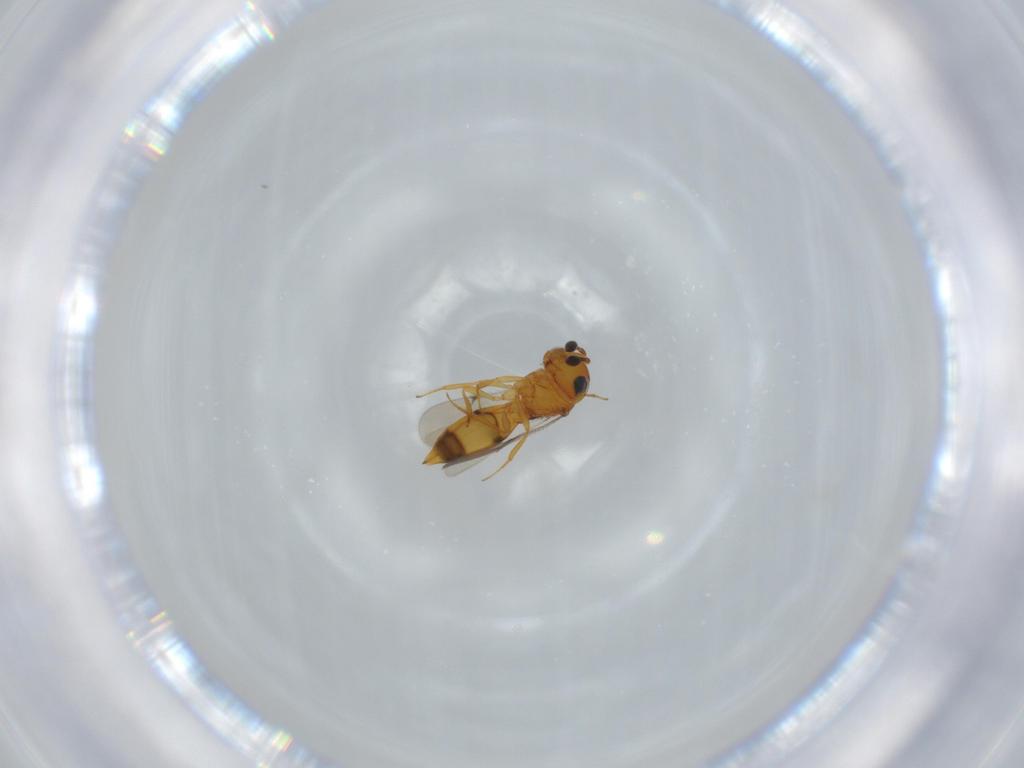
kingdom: Animalia
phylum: Arthropoda
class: Insecta
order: Hymenoptera
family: Scelionidae
